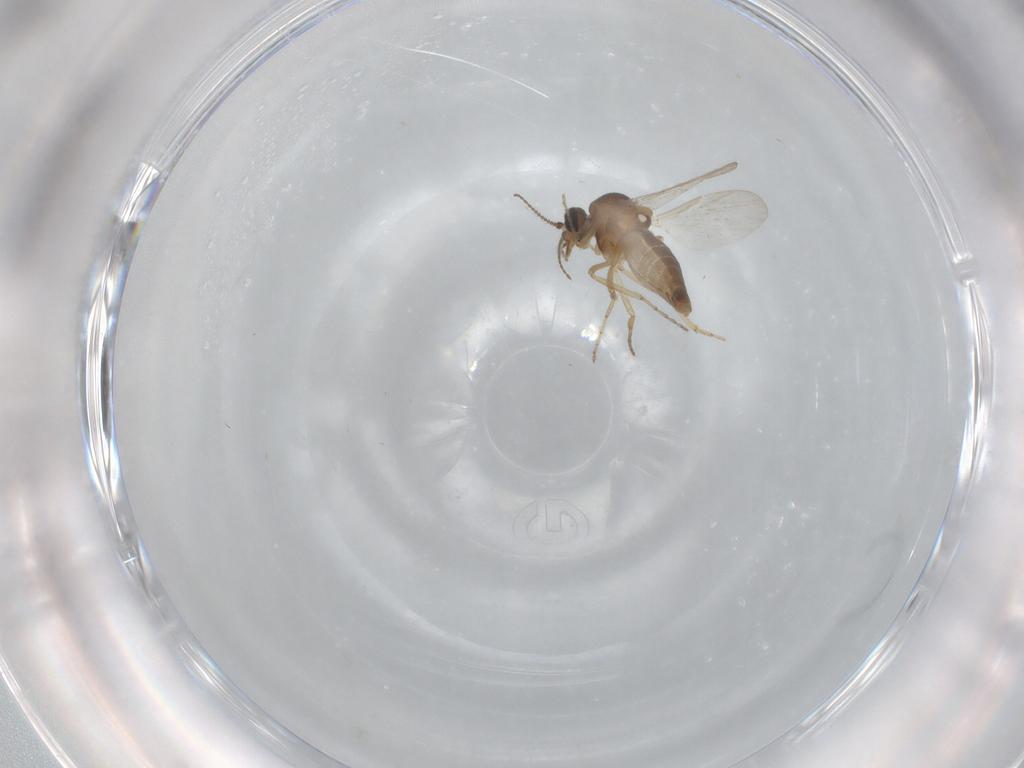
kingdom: Animalia
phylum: Arthropoda
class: Insecta
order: Diptera
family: Ceratopogonidae
